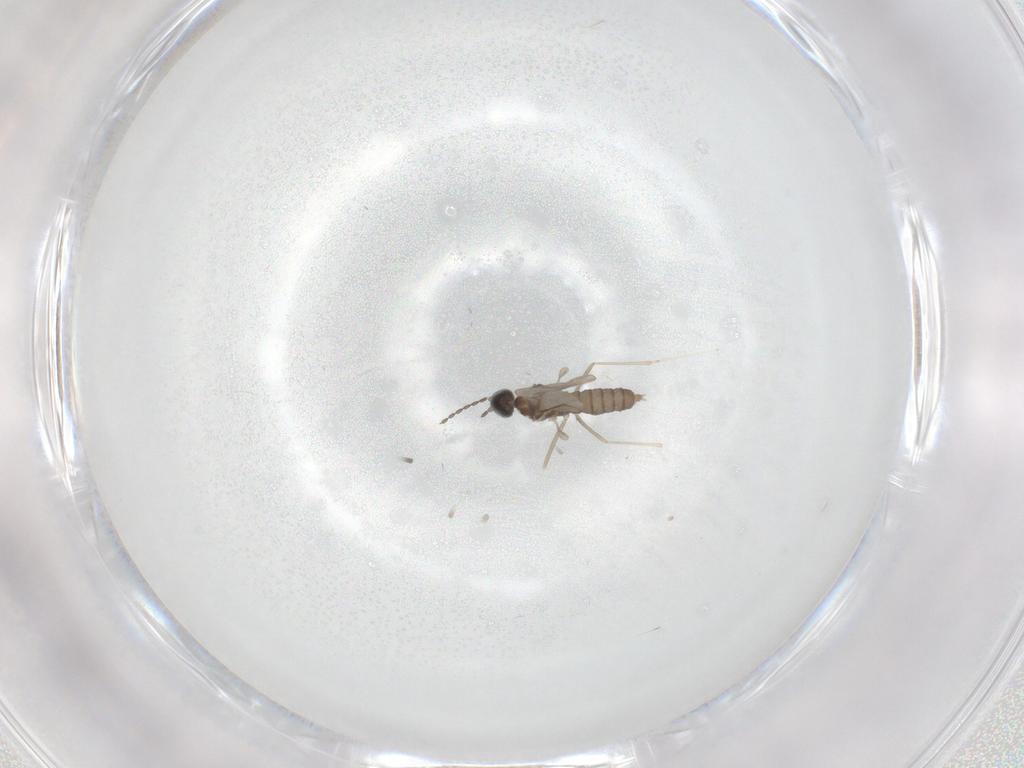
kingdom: Animalia
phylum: Arthropoda
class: Insecta
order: Diptera
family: Cecidomyiidae
